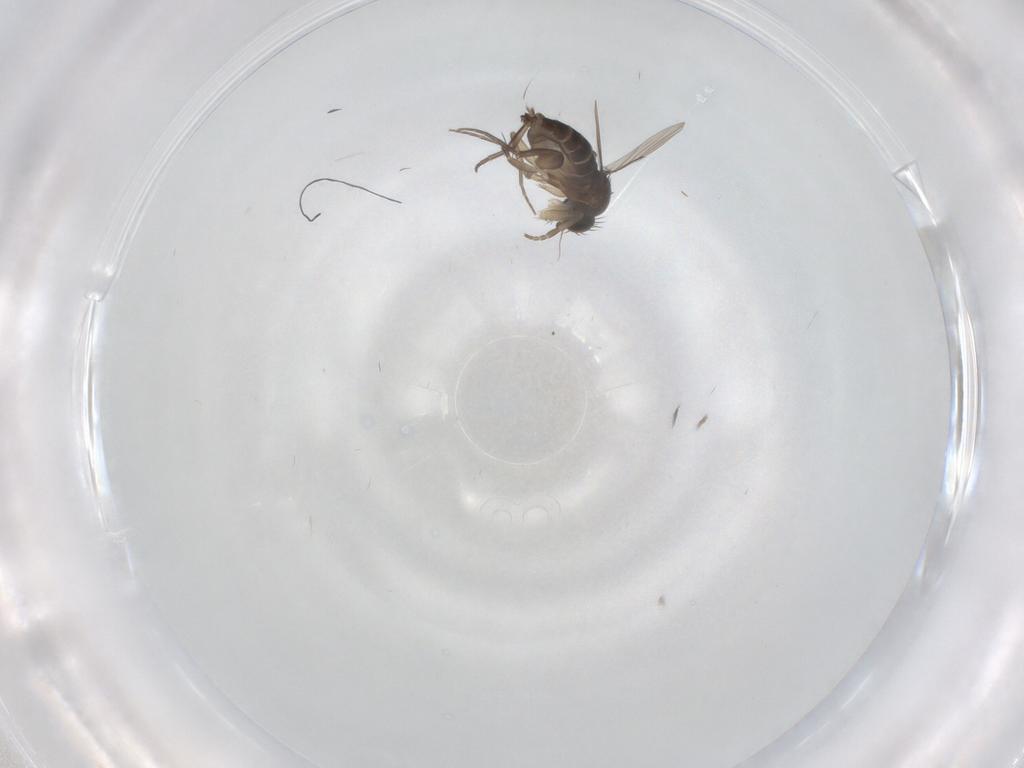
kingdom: Animalia
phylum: Arthropoda
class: Insecta
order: Diptera
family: Phoridae
